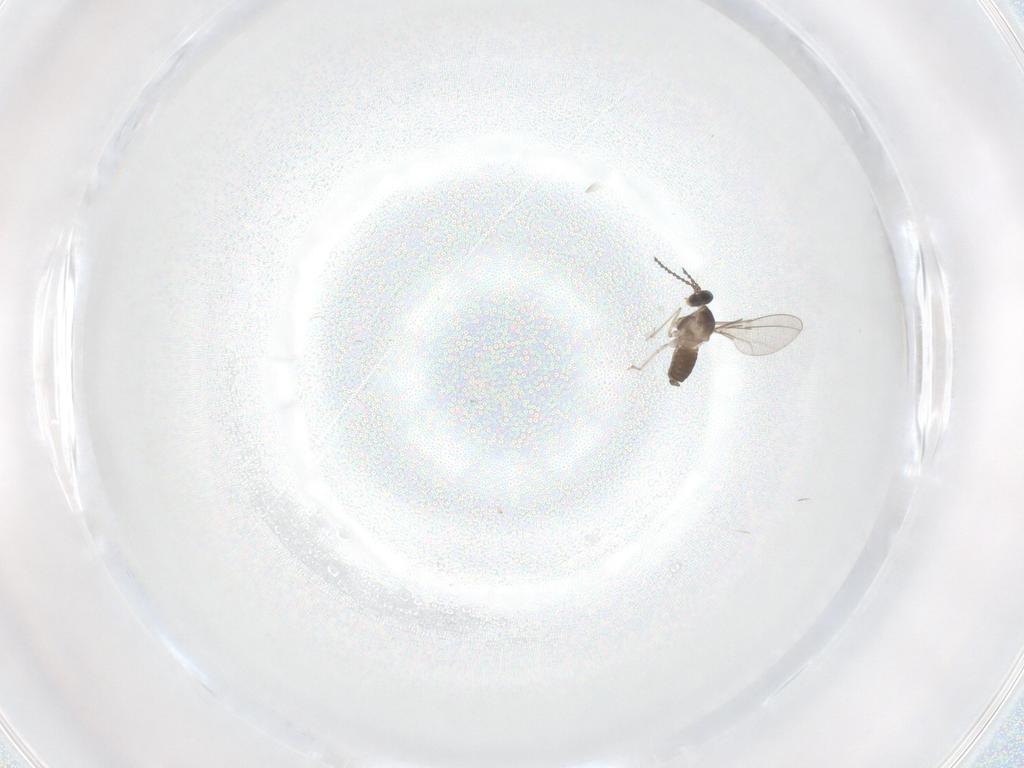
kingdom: Animalia
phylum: Arthropoda
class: Insecta
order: Diptera
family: Cecidomyiidae
